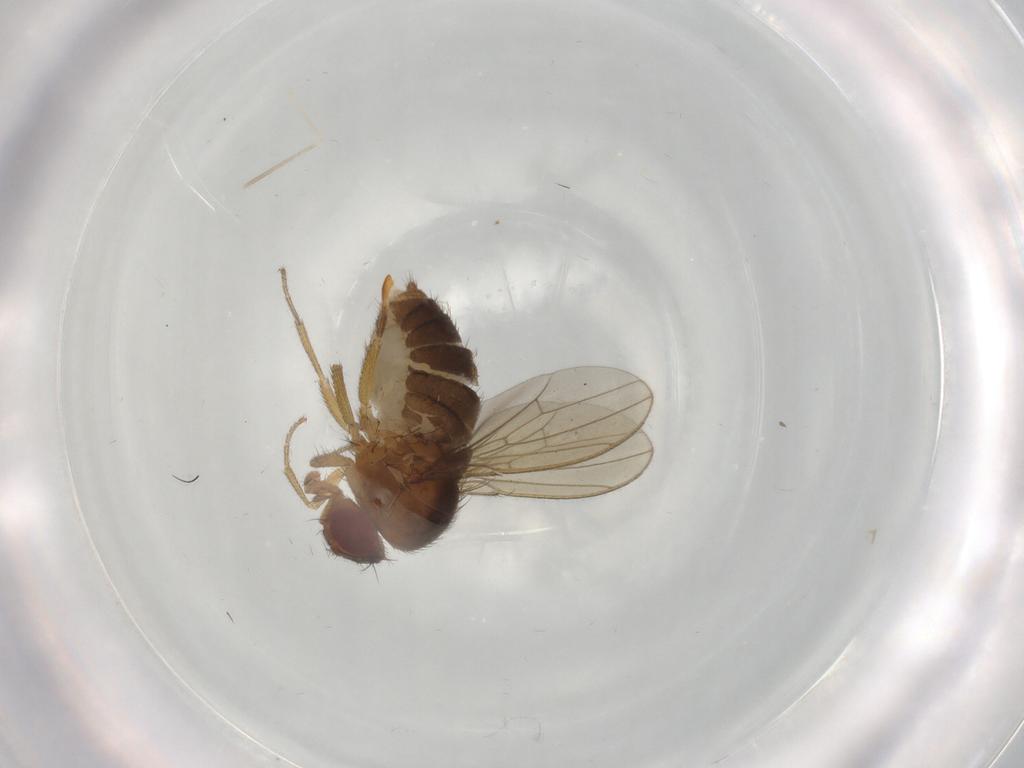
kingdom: Animalia
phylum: Arthropoda
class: Insecta
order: Diptera
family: Drosophilidae
